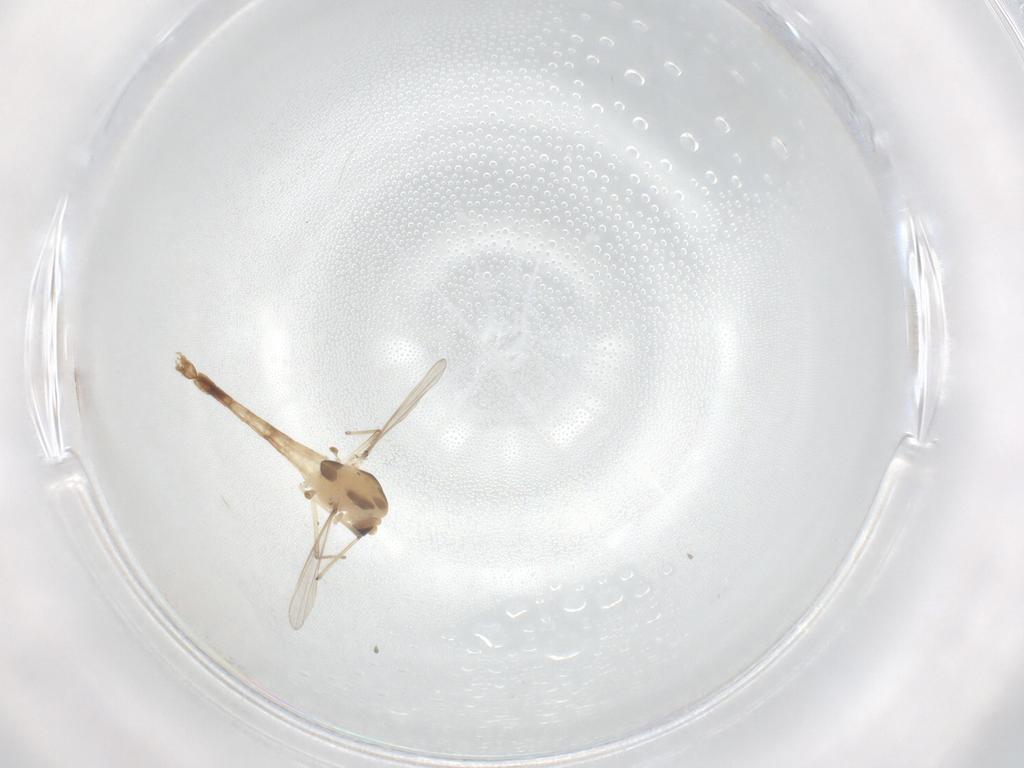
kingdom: Animalia
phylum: Arthropoda
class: Insecta
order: Diptera
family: Chironomidae
